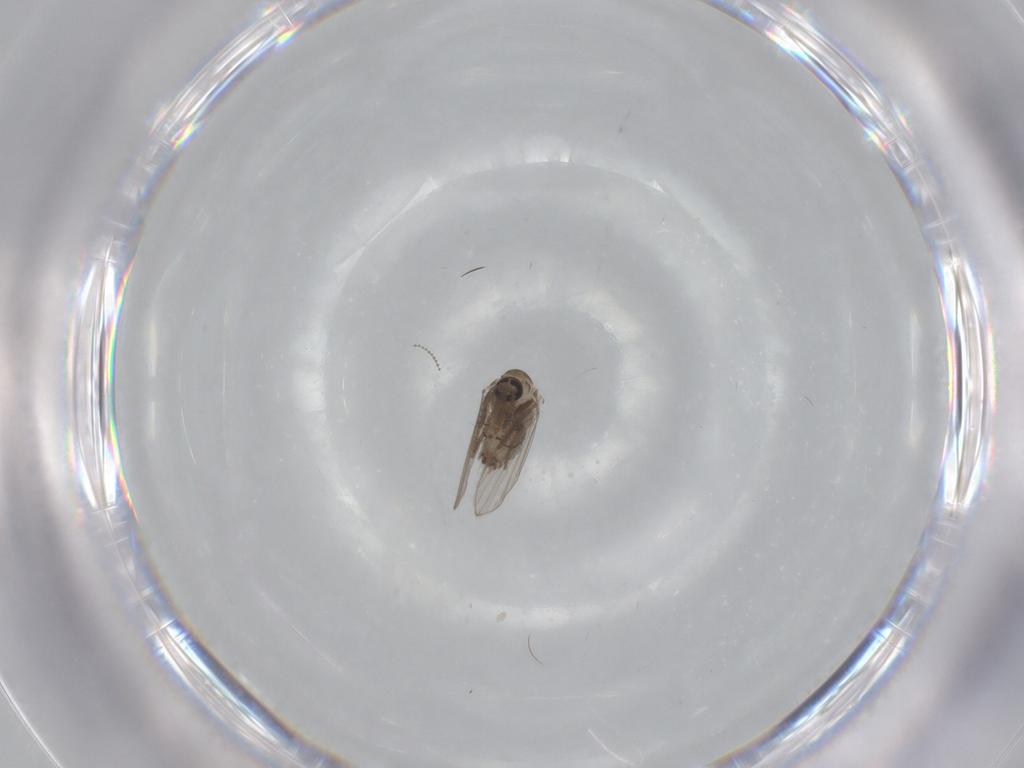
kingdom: Animalia
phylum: Arthropoda
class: Insecta
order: Diptera
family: Psychodidae
